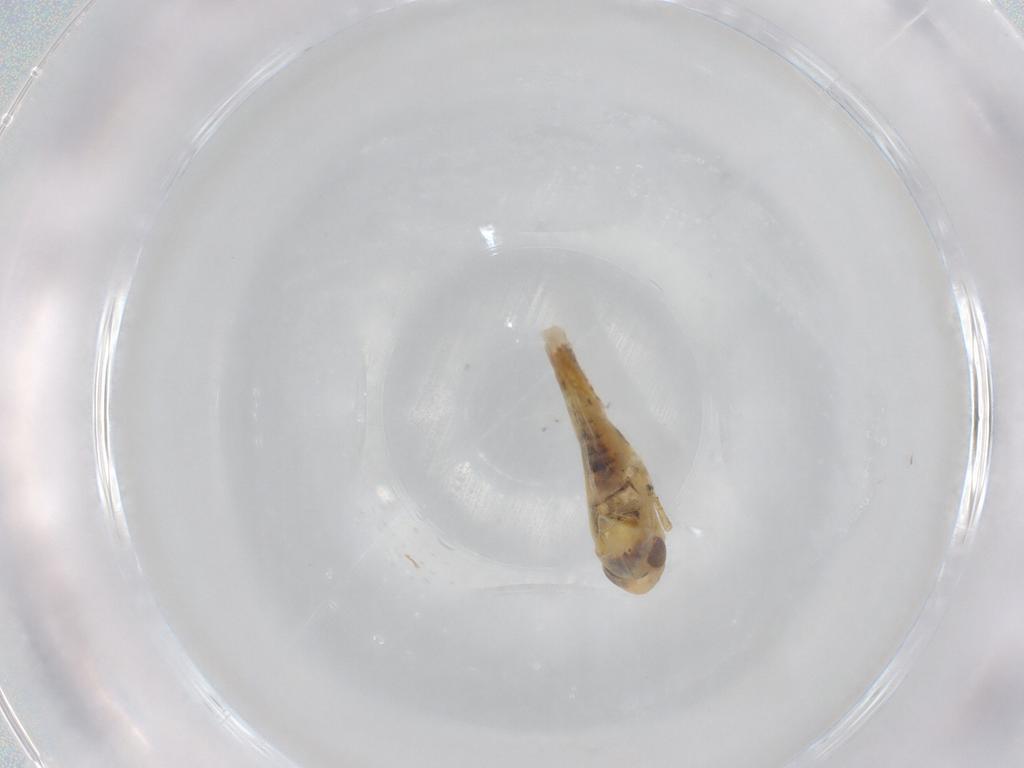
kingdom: Animalia
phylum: Arthropoda
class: Insecta
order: Hemiptera
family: Cicadellidae
